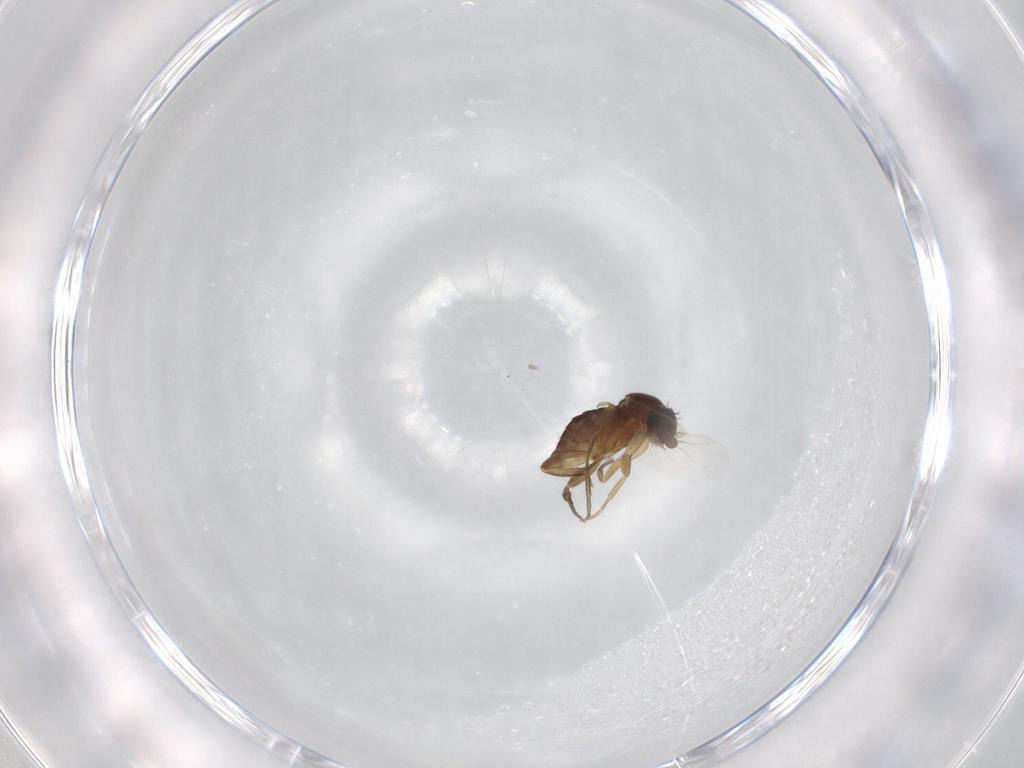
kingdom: Animalia
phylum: Arthropoda
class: Insecta
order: Diptera
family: Phoridae
